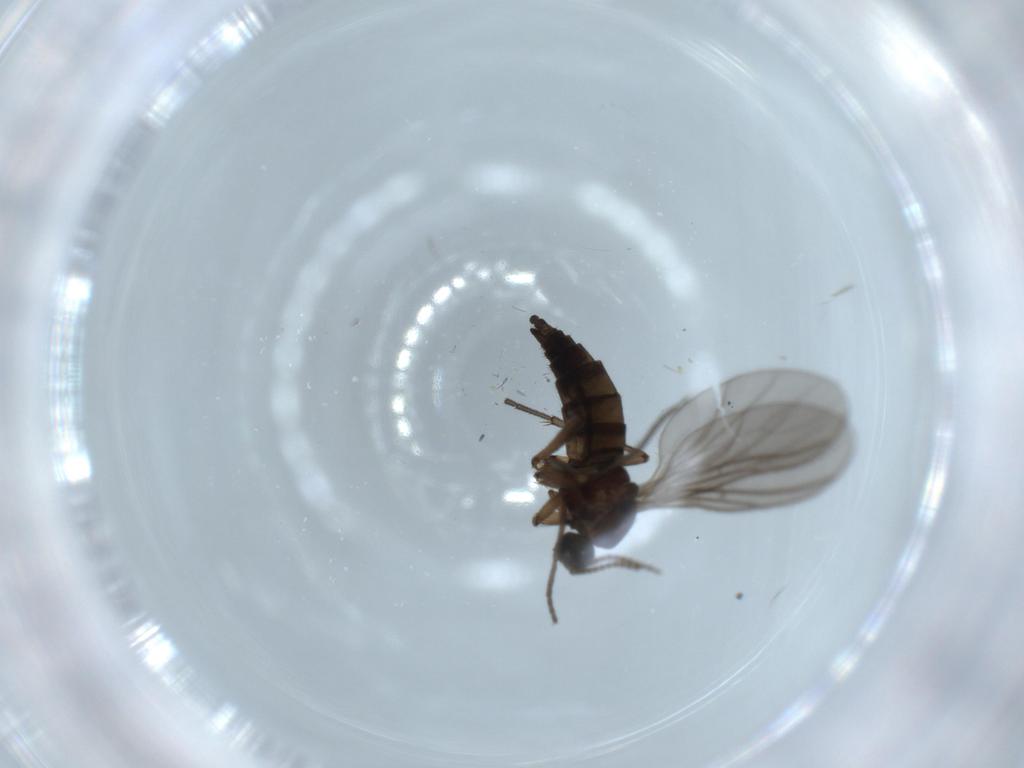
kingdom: Animalia
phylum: Arthropoda
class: Insecta
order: Diptera
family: Sciaridae
